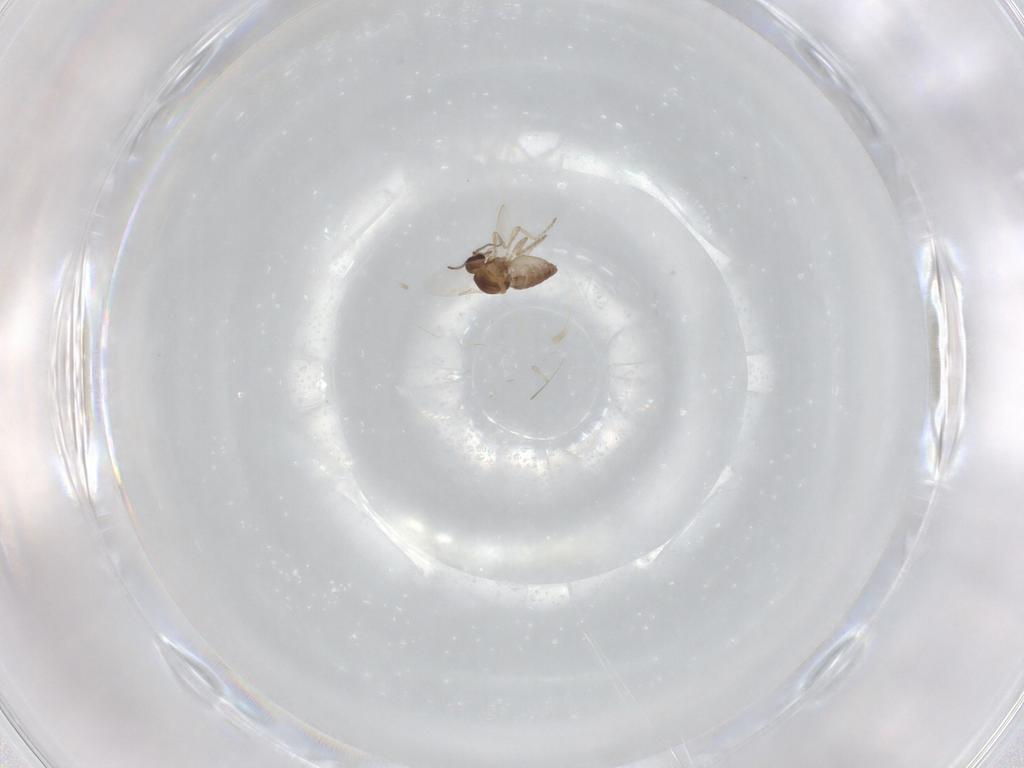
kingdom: Animalia
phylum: Arthropoda
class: Insecta
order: Diptera
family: Ceratopogonidae
